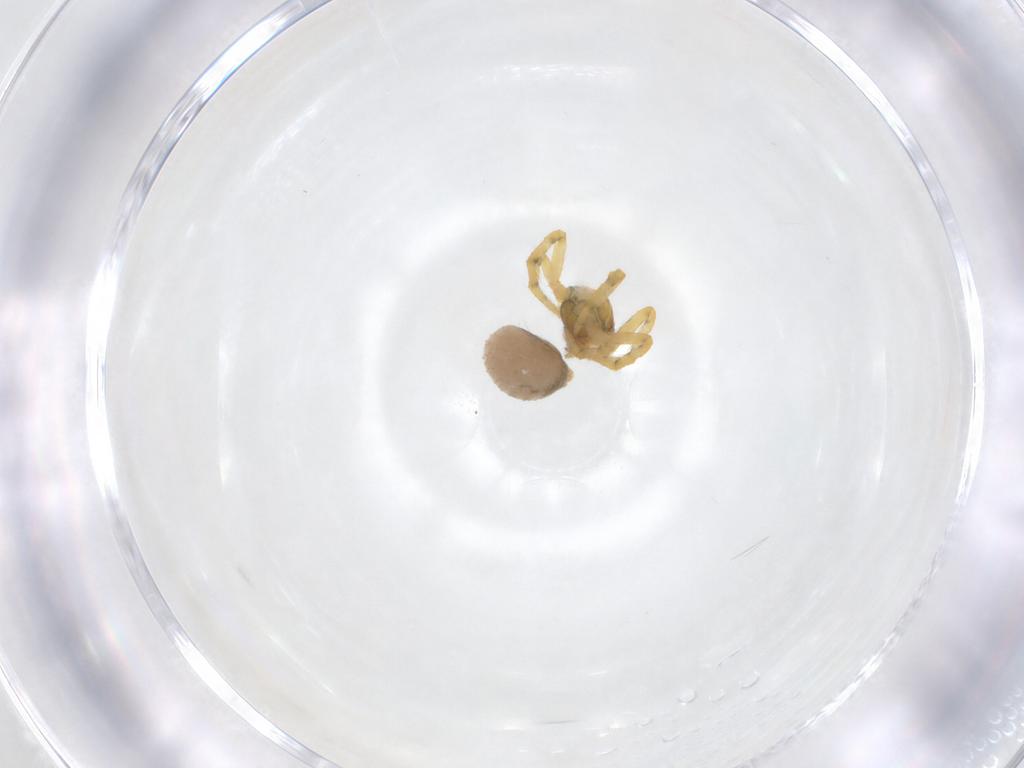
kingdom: Animalia
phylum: Arthropoda
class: Arachnida
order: Araneae
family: Theridiidae
